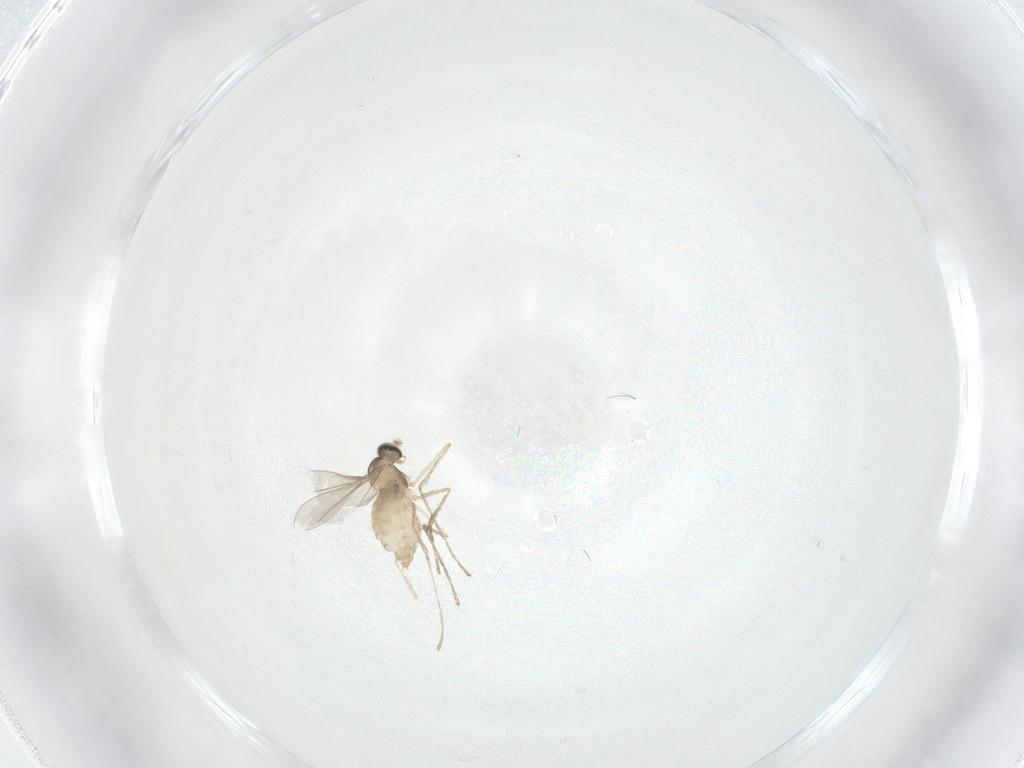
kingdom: Animalia
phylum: Arthropoda
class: Insecta
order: Diptera
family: Cecidomyiidae
